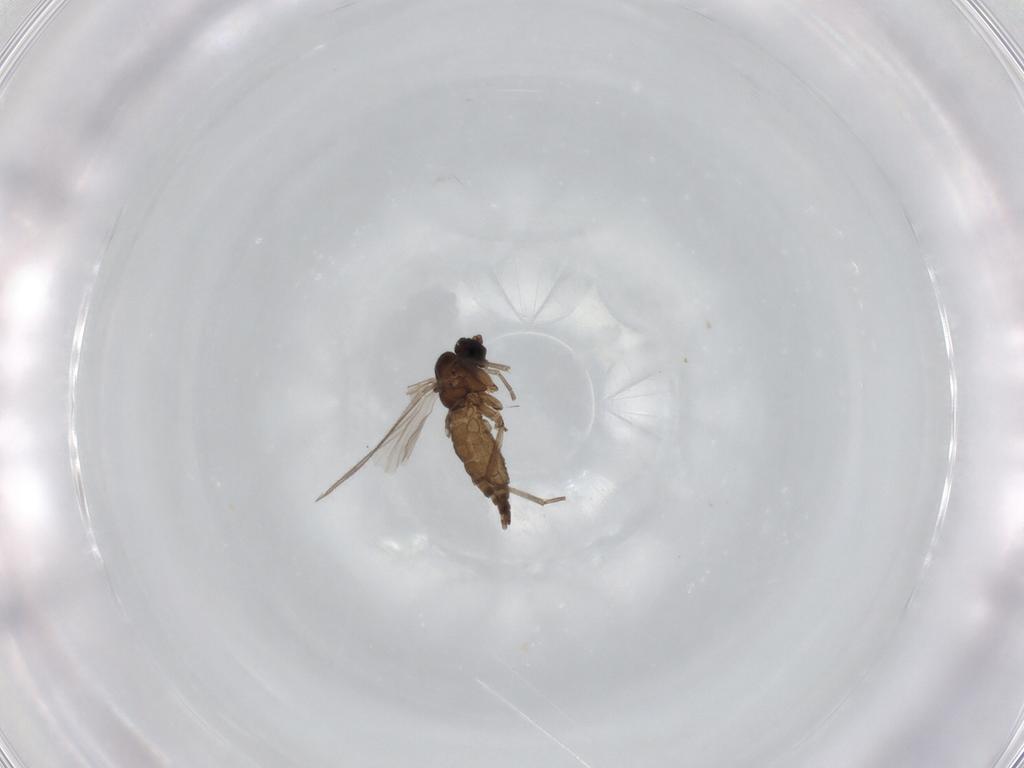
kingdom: Animalia
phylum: Arthropoda
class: Insecta
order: Diptera
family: Sciaridae
